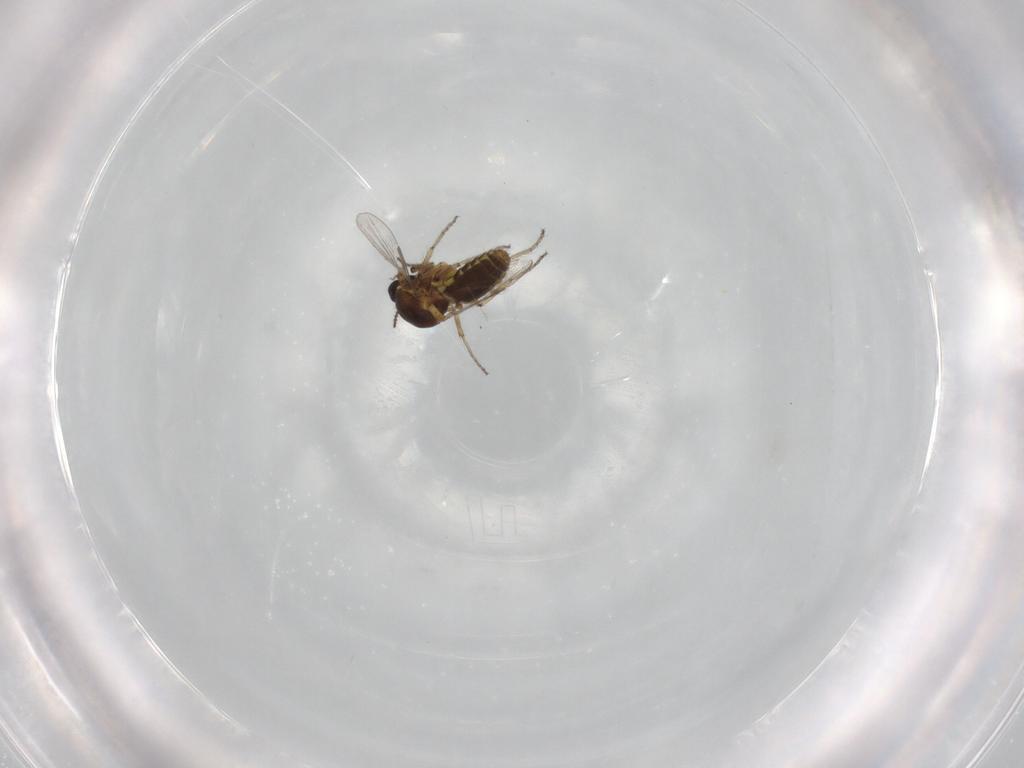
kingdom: Animalia
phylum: Arthropoda
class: Insecta
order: Diptera
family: Ceratopogonidae
